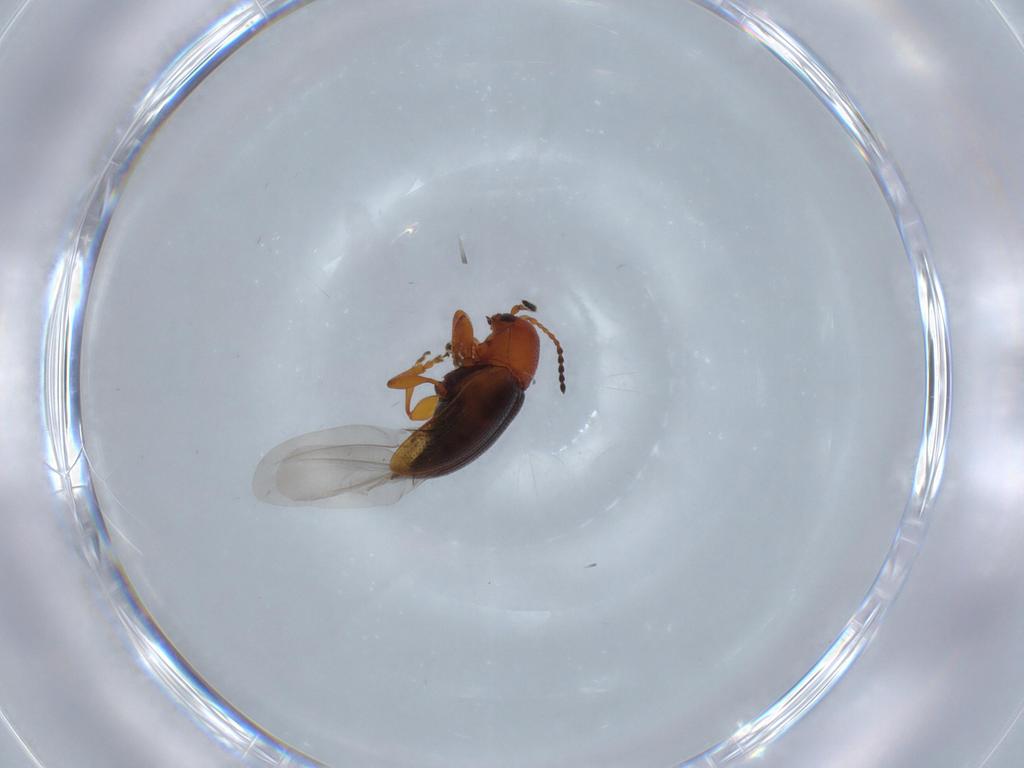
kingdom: Animalia
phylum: Arthropoda
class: Insecta
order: Coleoptera
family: Chrysomelidae
